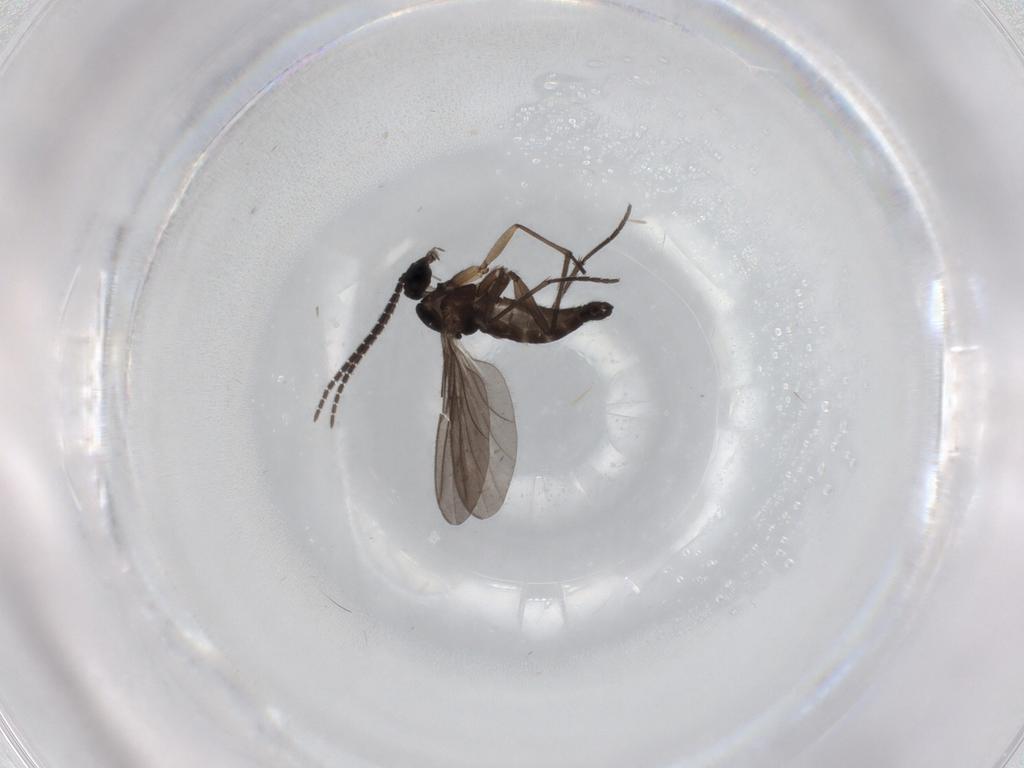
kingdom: Animalia
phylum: Arthropoda
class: Insecta
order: Diptera
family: Sciaridae
